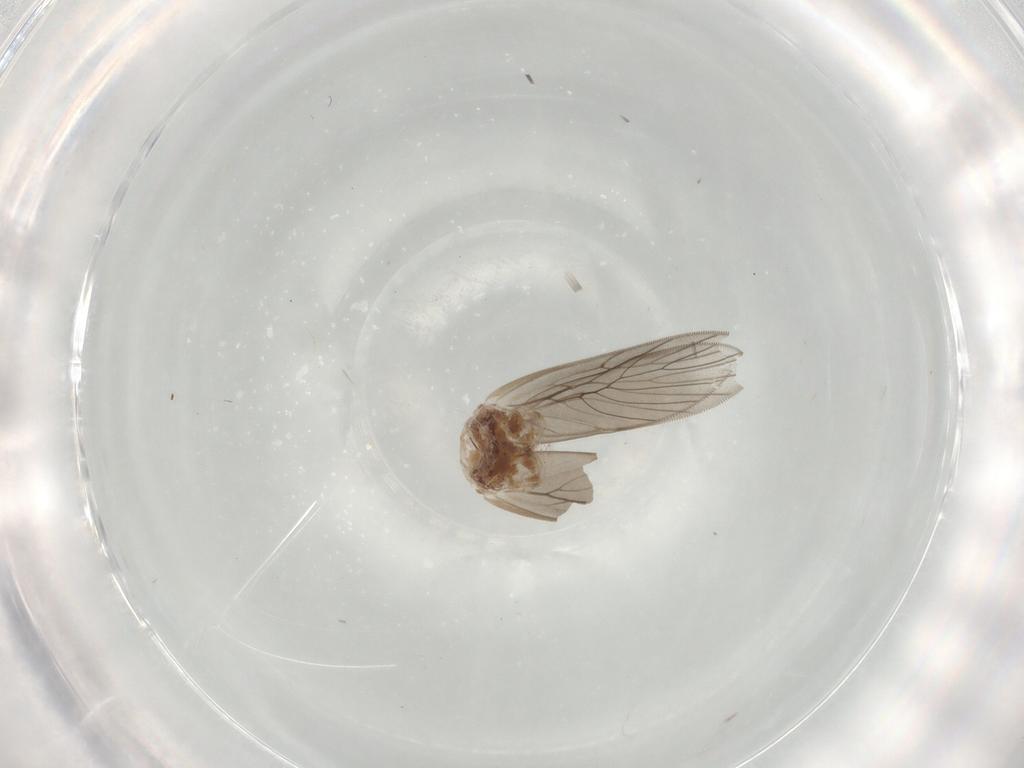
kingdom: Animalia
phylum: Arthropoda
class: Insecta
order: Psocodea
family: Lepidopsocidae
